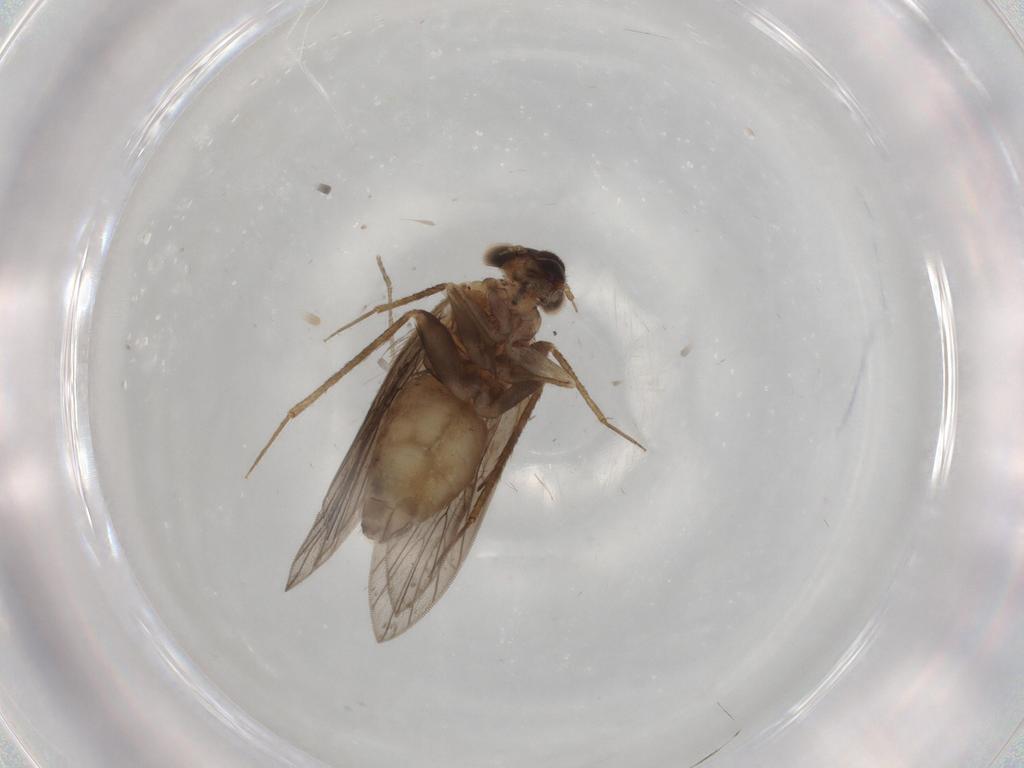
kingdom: Animalia
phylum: Arthropoda
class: Insecta
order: Psocodea
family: Lepidopsocidae
